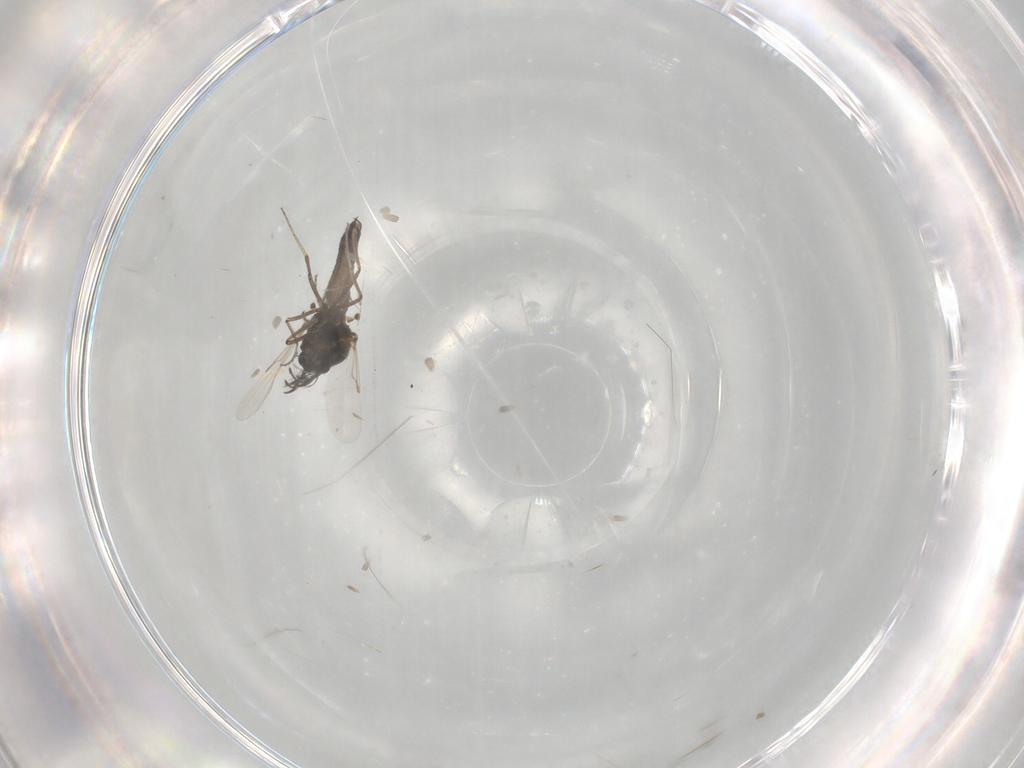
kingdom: Animalia
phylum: Arthropoda
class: Insecta
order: Diptera
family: Ceratopogonidae
